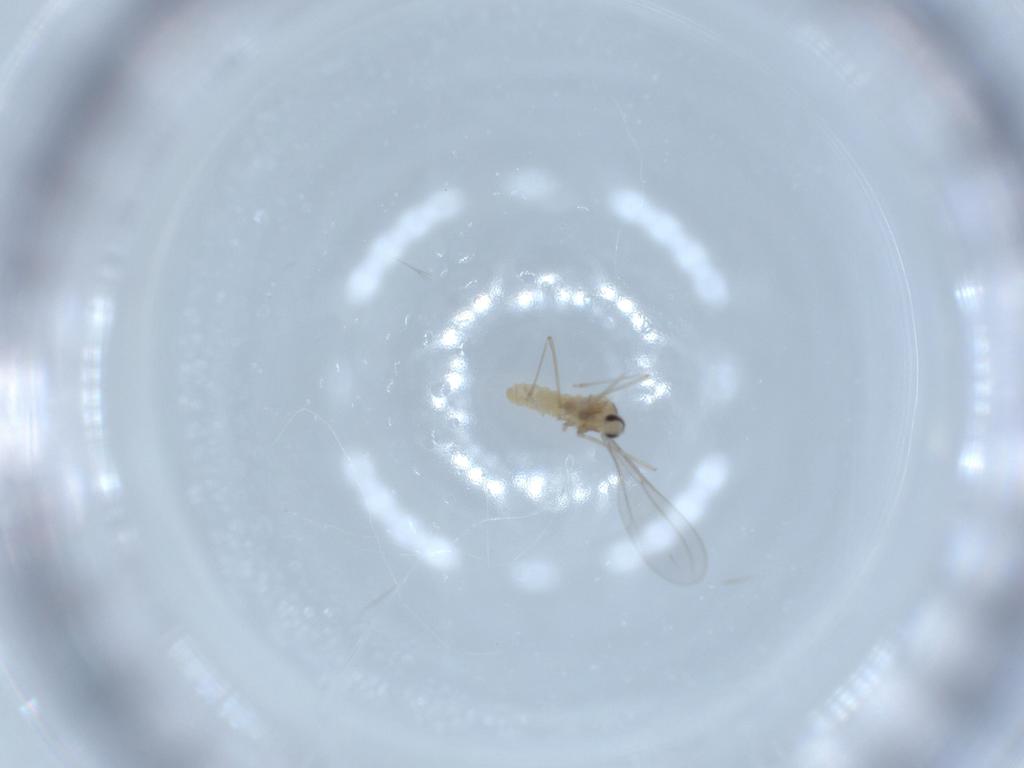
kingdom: Animalia
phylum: Arthropoda
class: Insecta
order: Diptera
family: Cecidomyiidae
